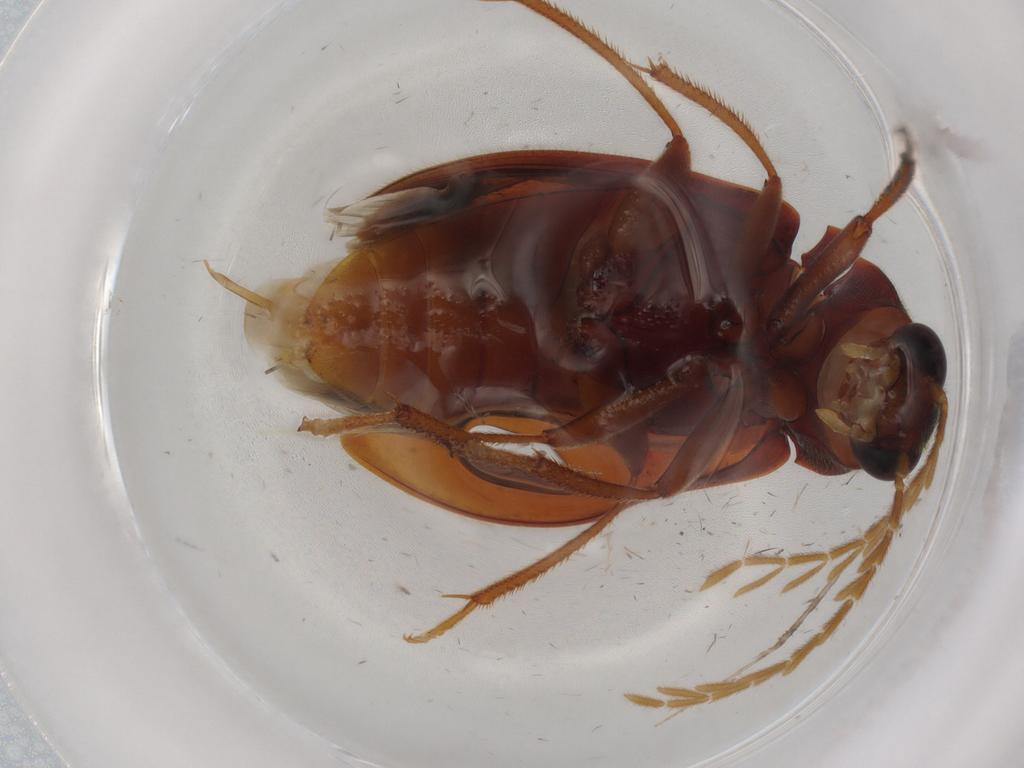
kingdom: Animalia
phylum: Arthropoda
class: Insecta
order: Coleoptera
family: Ptilodactylidae
